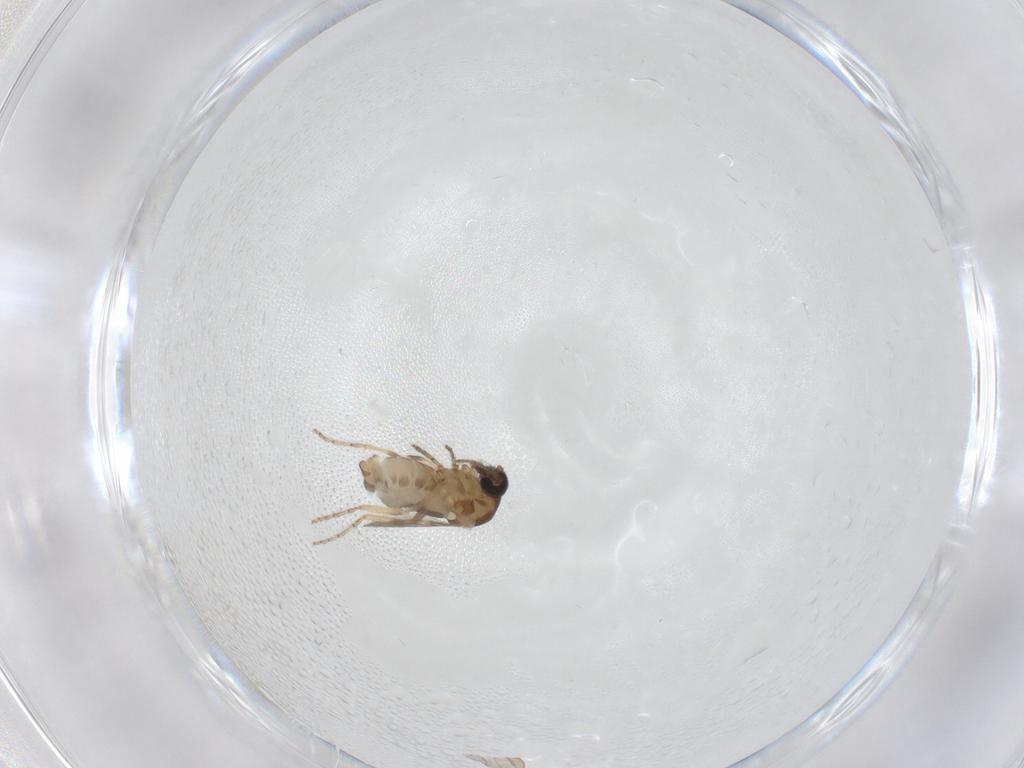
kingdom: Animalia
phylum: Arthropoda
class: Insecta
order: Diptera
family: Ceratopogonidae
